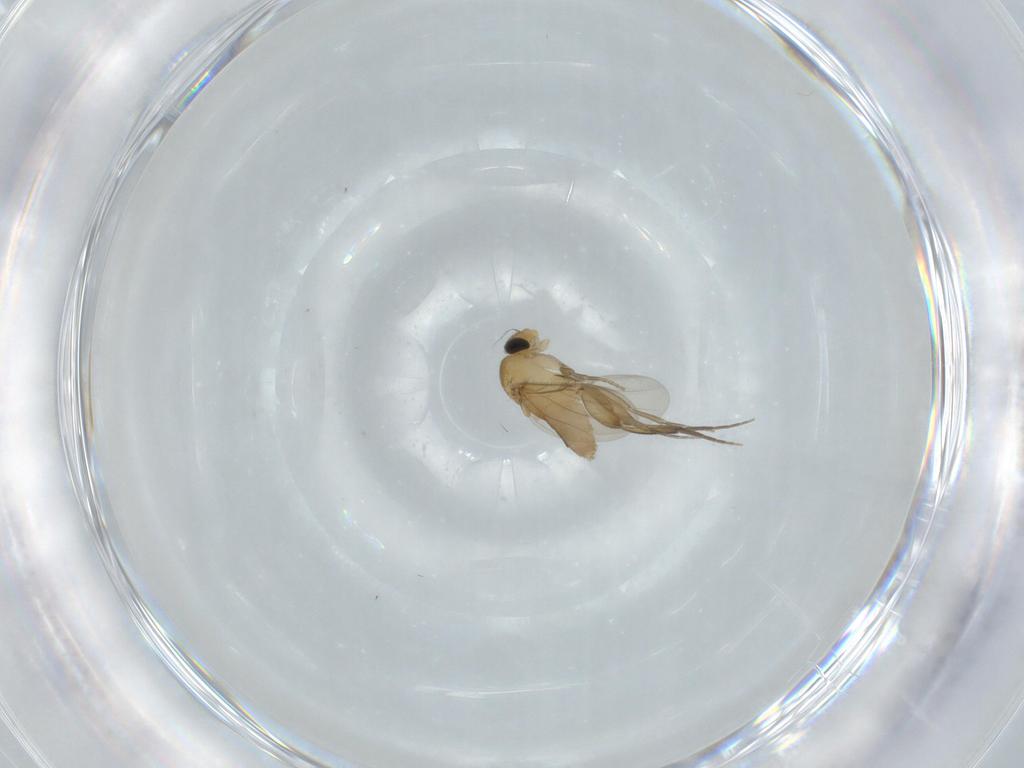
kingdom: Animalia
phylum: Arthropoda
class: Insecta
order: Diptera
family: Phoridae
